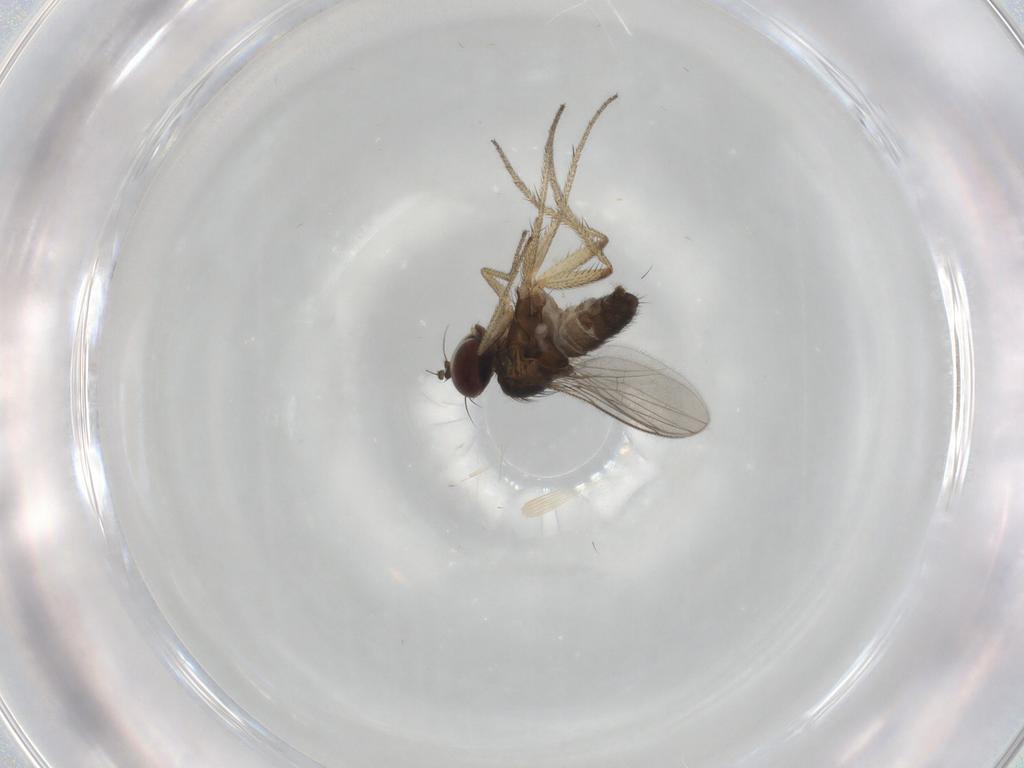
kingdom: Animalia
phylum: Arthropoda
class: Insecta
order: Diptera
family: Dolichopodidae
